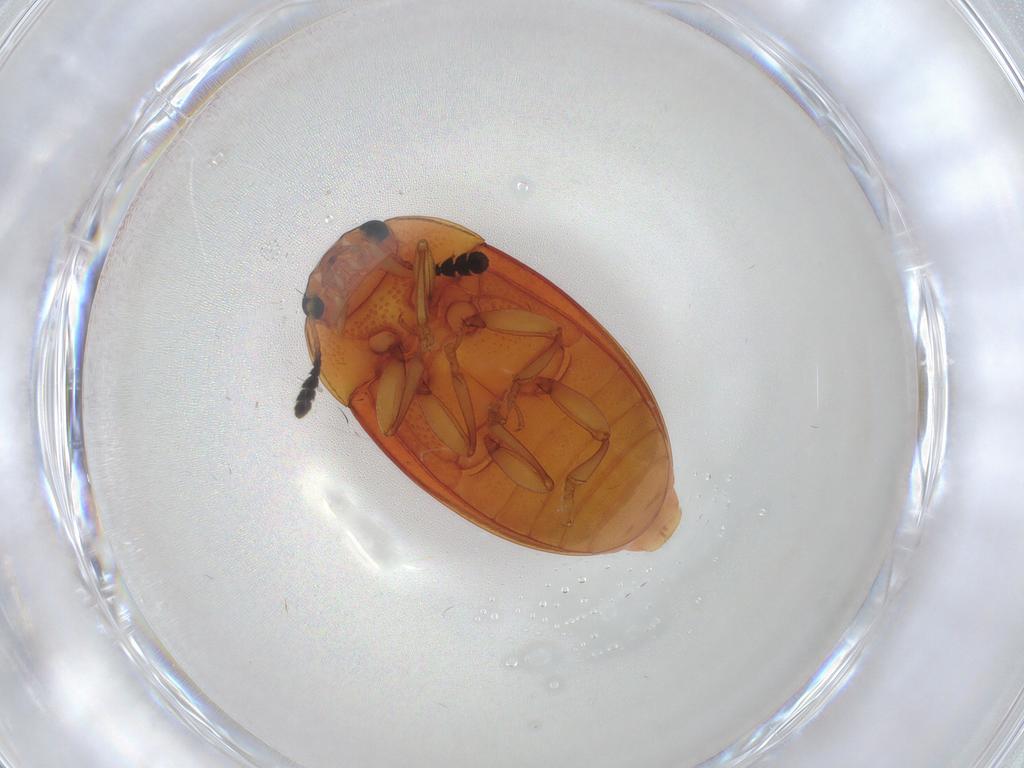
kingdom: Animalia
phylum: Arthropoda
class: Insecta
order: Coleoptera
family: Erotylidae
